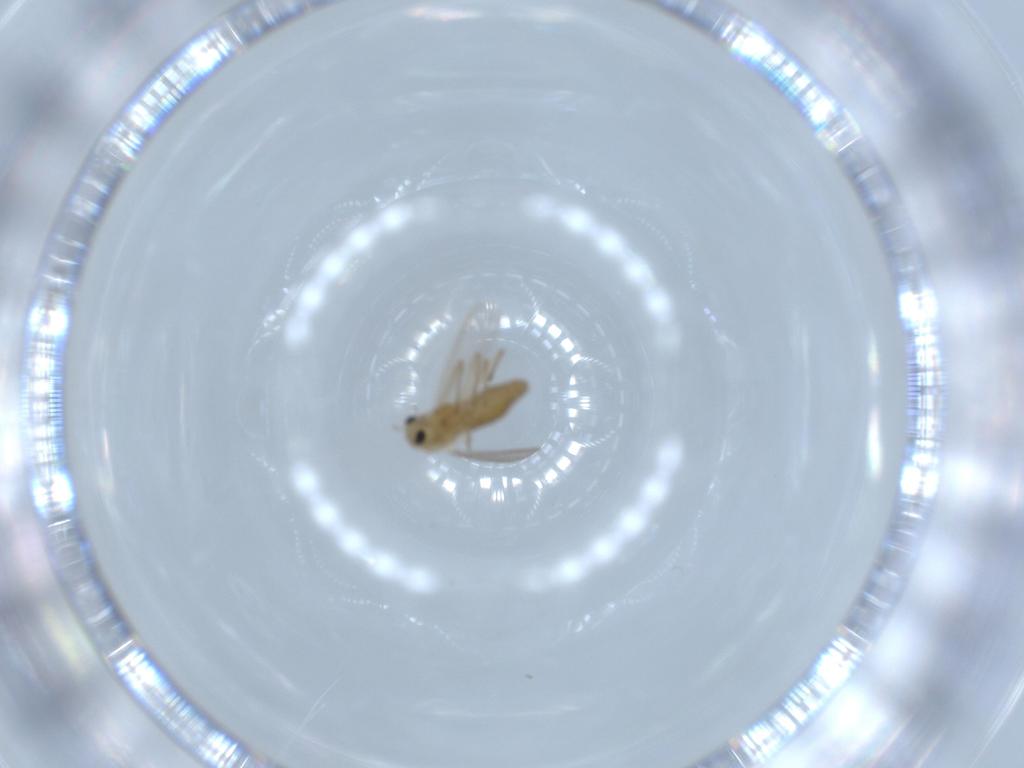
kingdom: Animalia
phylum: Arthropoda
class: Insecta
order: Diptera
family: Chironomidae
